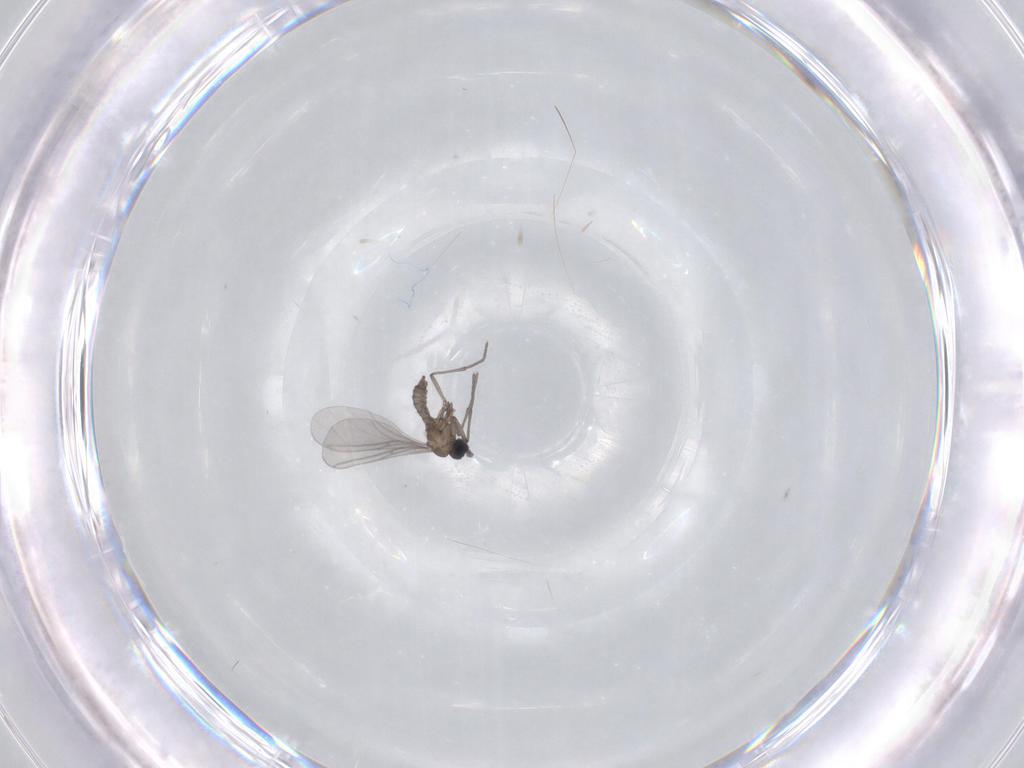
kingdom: Animalia
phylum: Arthropoda
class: Insecta
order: Diptera
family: Sciaridae
